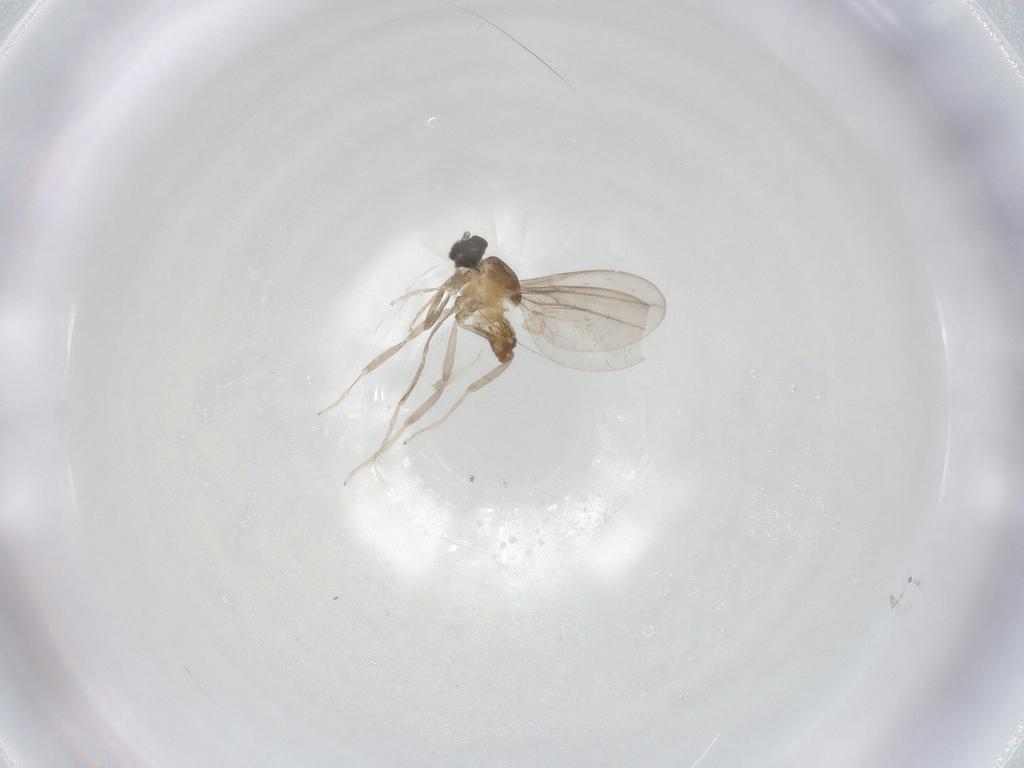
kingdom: Animalia
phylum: Arthropoda
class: Insecta
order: Diptera
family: Cecidomyiidae
